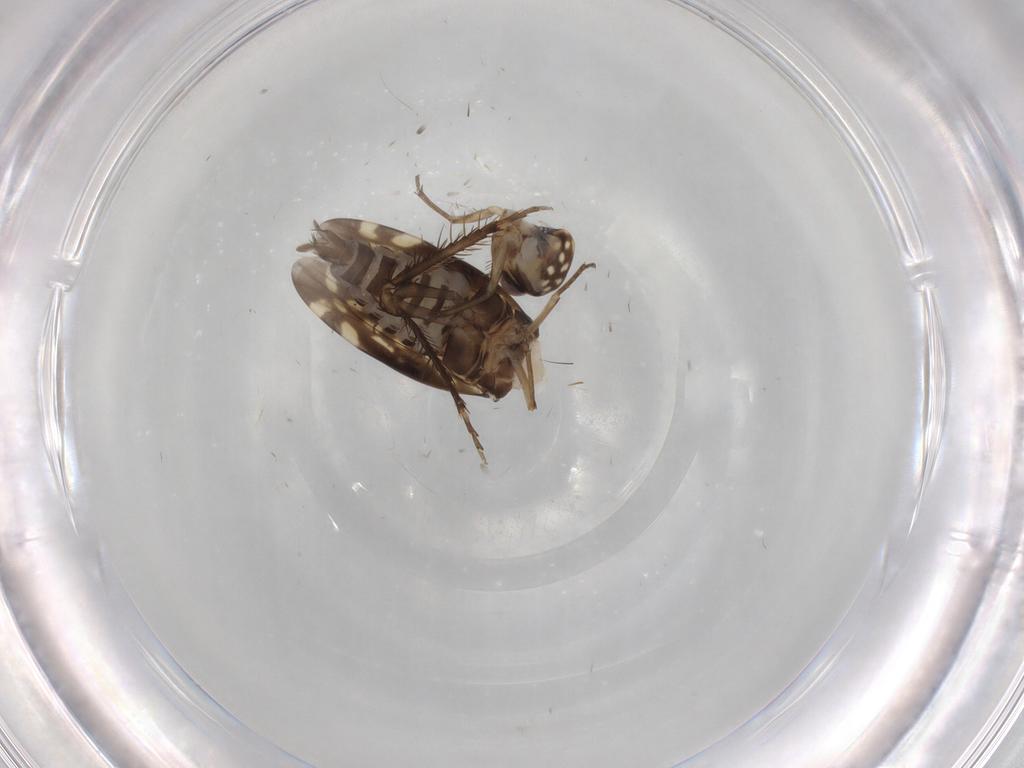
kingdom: Animalia
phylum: Arthropoda
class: Insecta
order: Hemiptera
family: Cicadellidae
